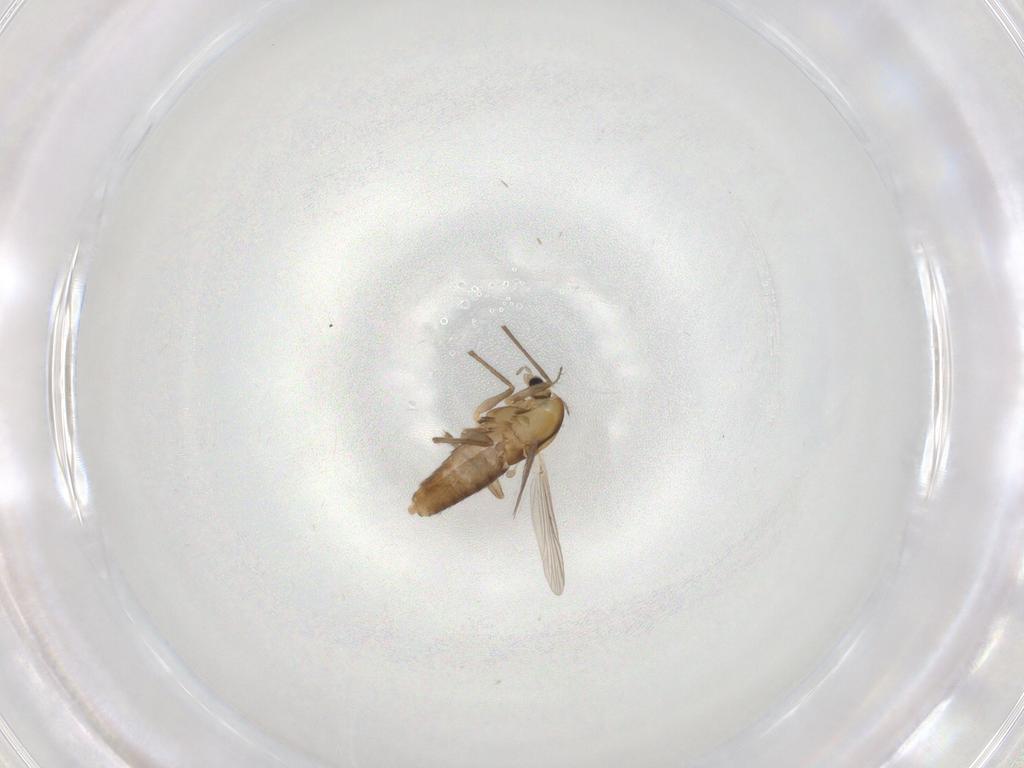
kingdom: Animalia
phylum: Arthropoda
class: Insecta
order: Diptera
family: Chironomidae
